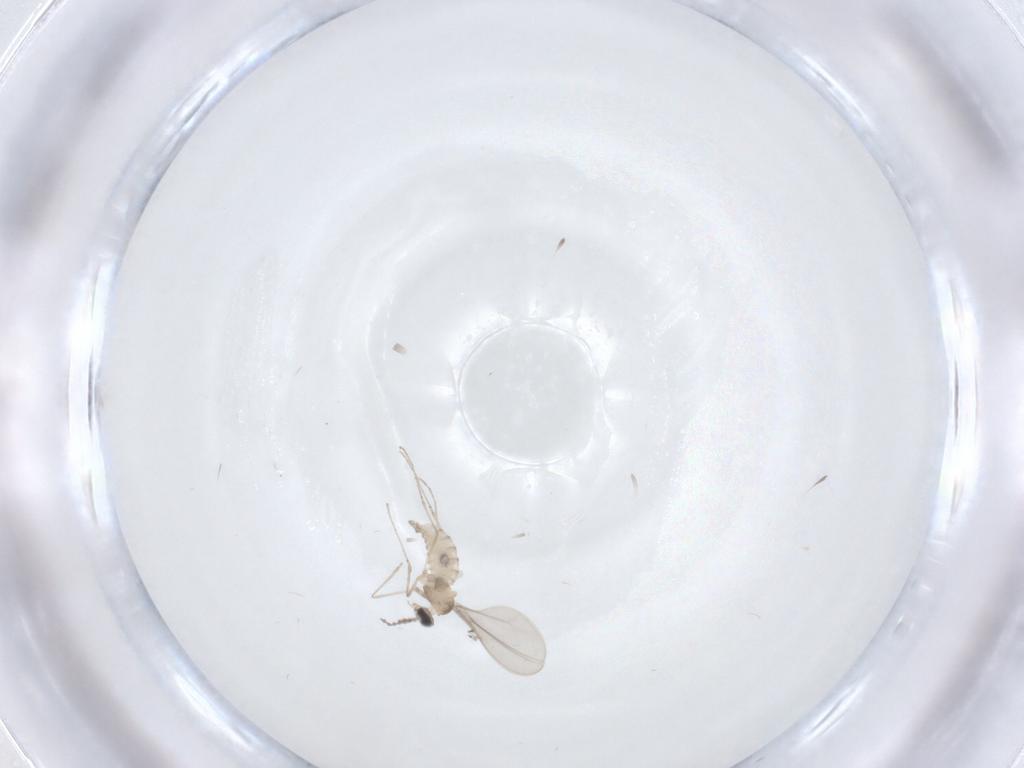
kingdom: Animalia
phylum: Arthropoda
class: Insecta
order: Diptera
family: Cecidomyiidae
